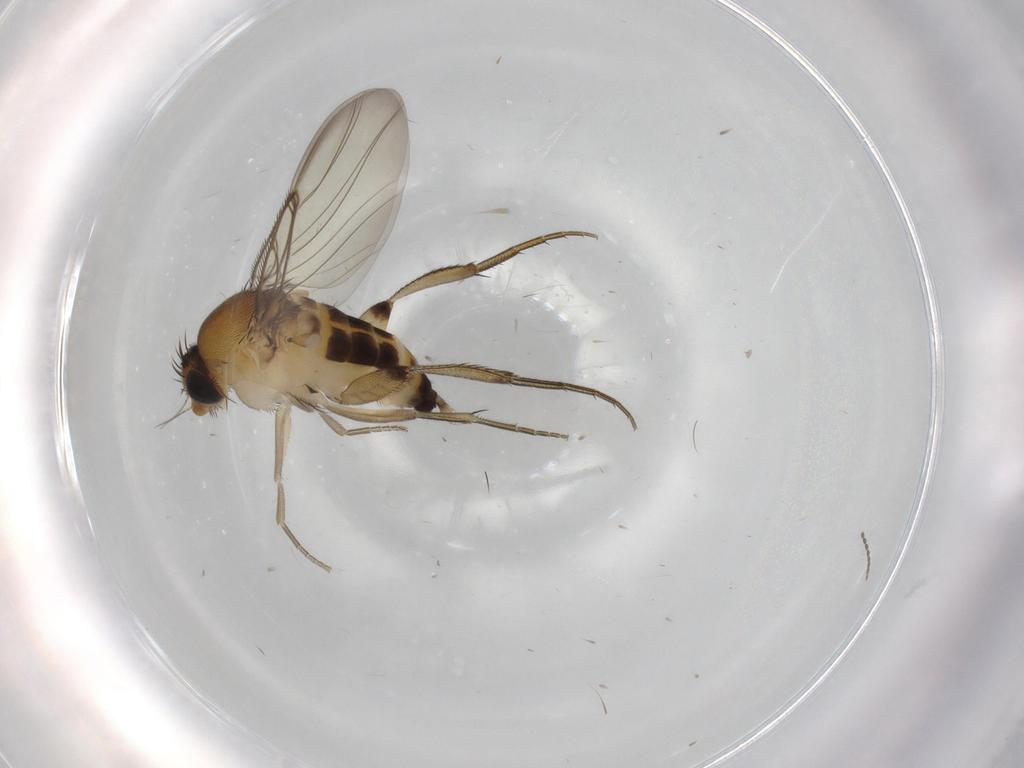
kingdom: Animalia
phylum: Arthropoda
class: Insecta
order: Diptera
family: Phoridae
